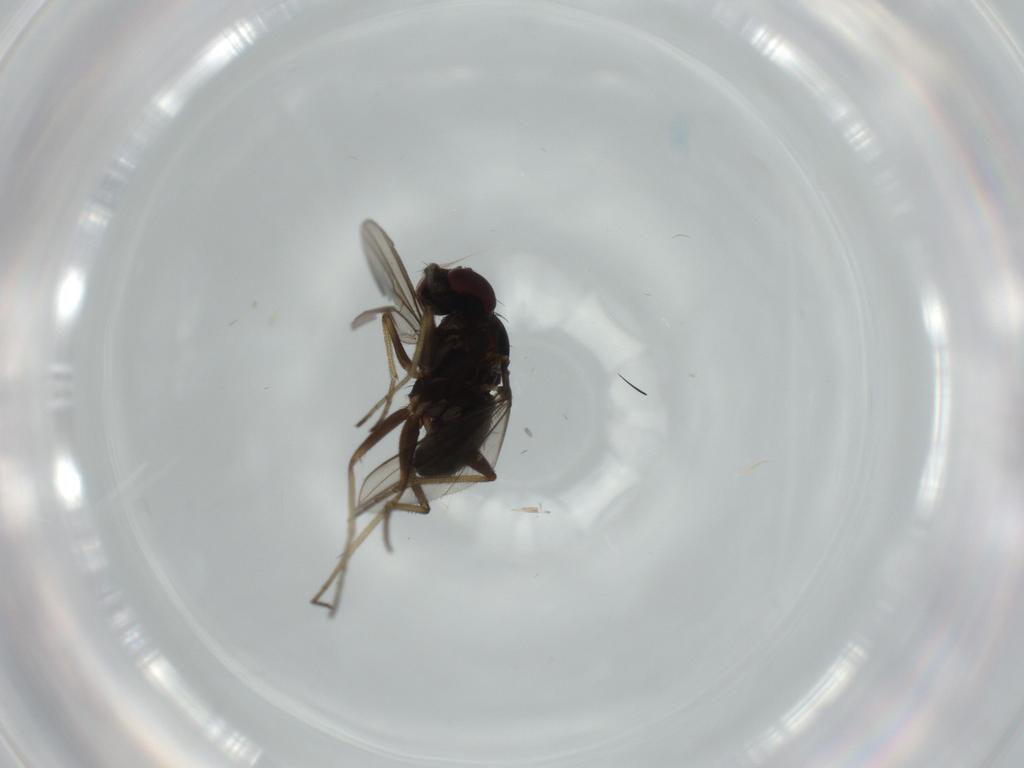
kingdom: Animalia
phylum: Arthropoda
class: Insecta
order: Diptera
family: Dolichopodidae
